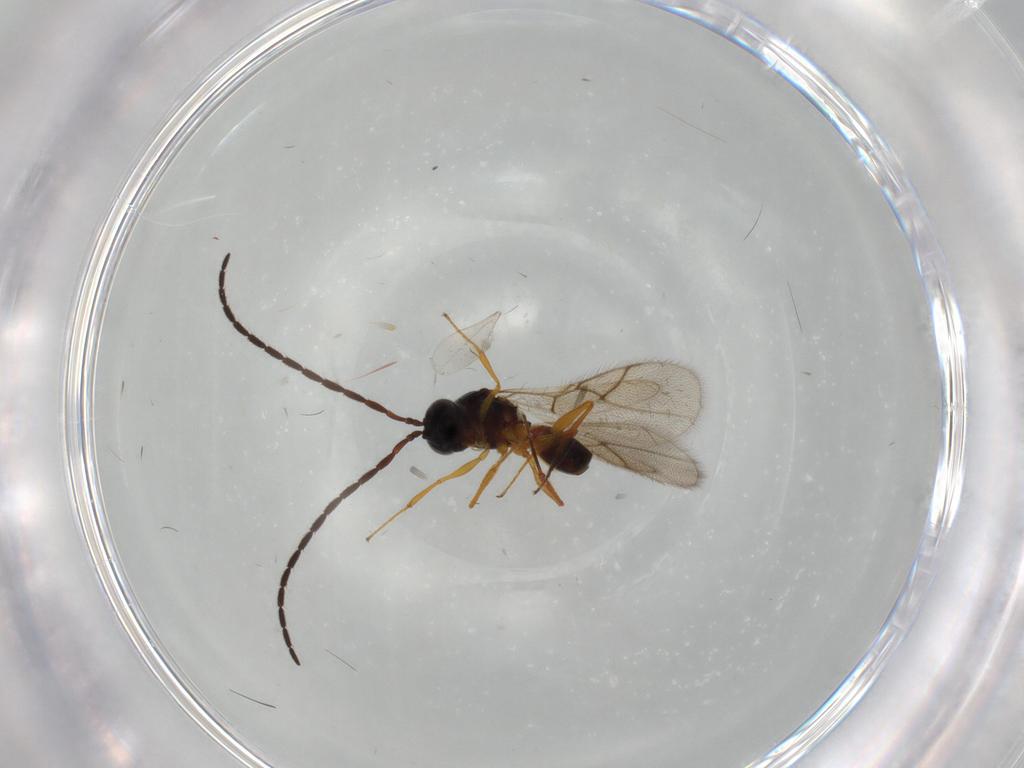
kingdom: Animalia
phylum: Arthropoda
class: Insecta
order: Hymenoptera
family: Figitidae
